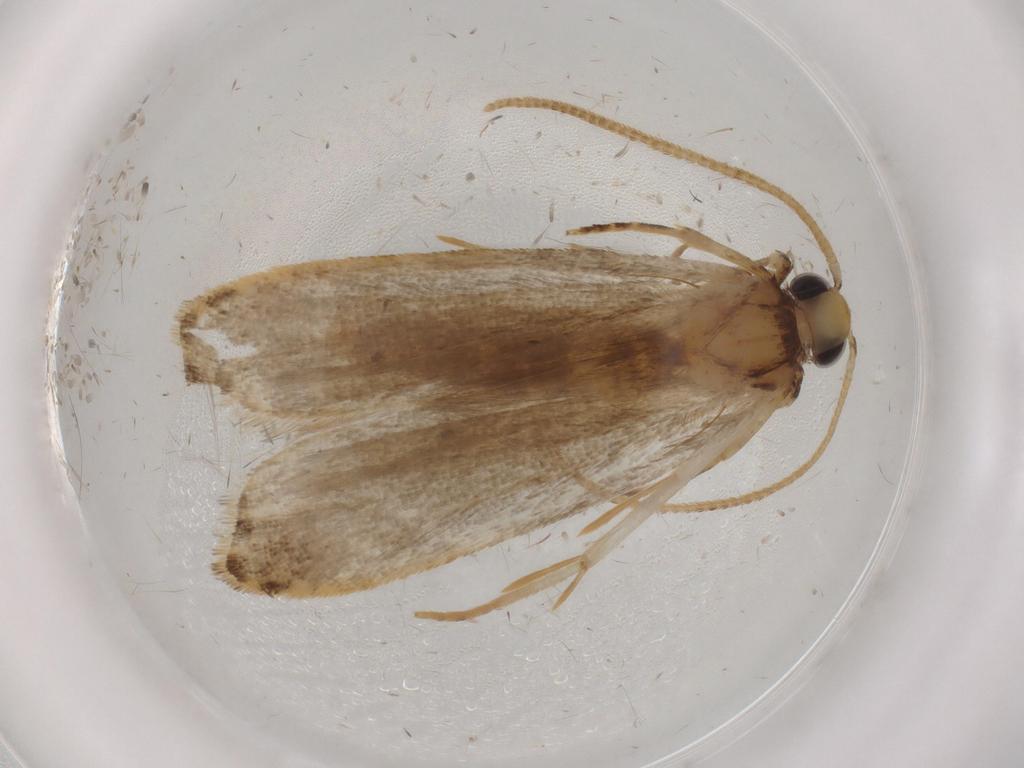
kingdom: Animalia
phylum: Arthropoda
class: Insecta
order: Lepidoptera
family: Autostichidae
